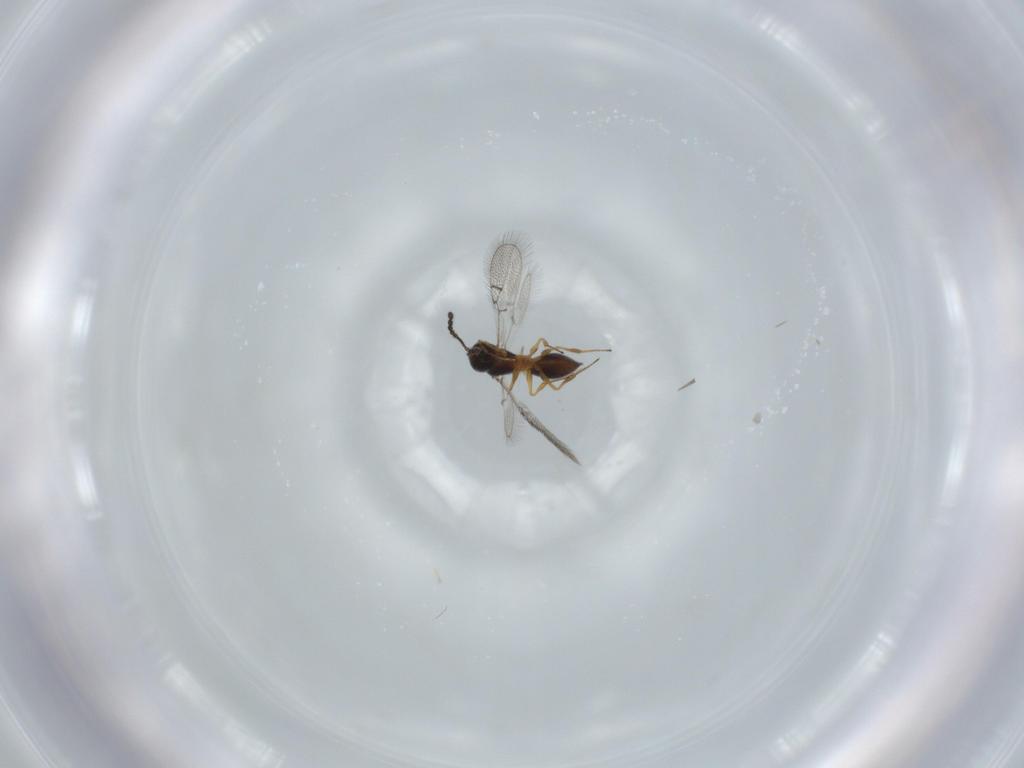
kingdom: Animalia
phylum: Arthropoda
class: Insecta
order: Hymenoptera
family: Figitidae
